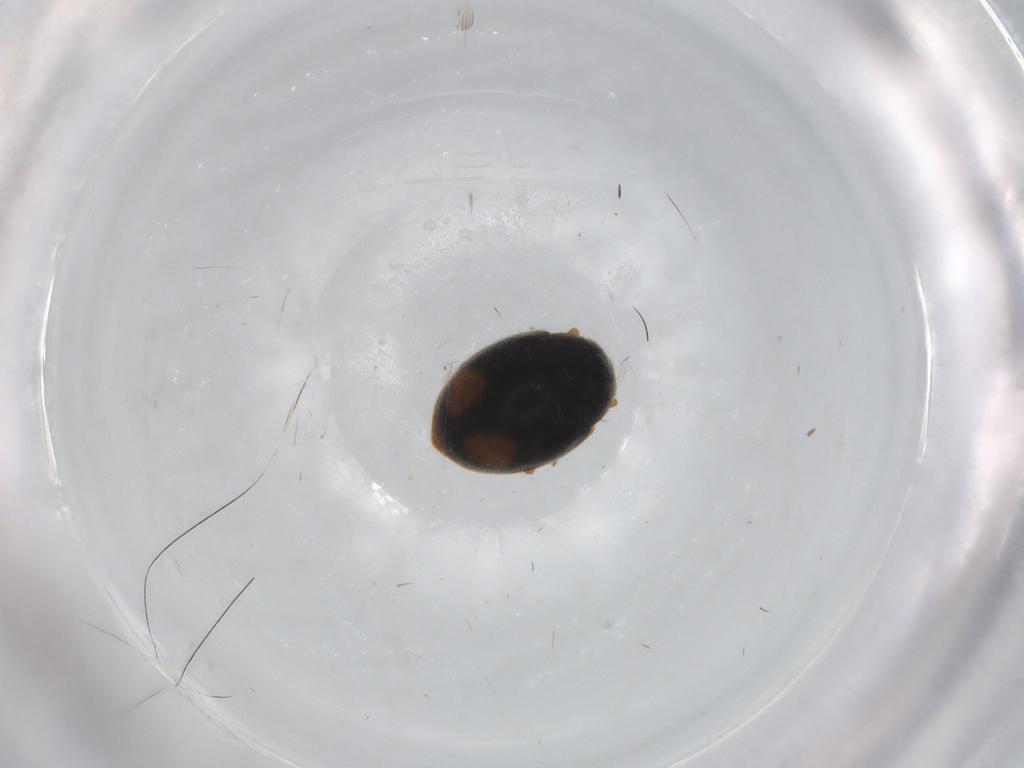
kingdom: Animalia
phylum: Arthropoda
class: Insecta
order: Coleoptera
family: Coccinellidae
